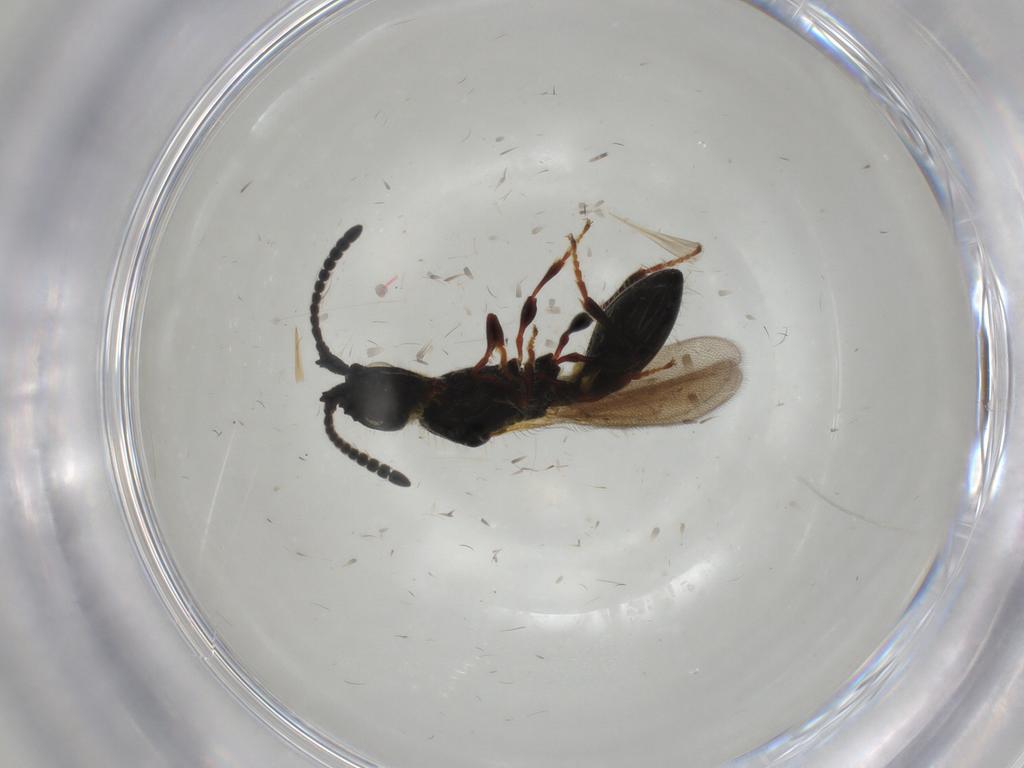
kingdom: Animalia
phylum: Arthropoda
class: Insecta
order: Hymenoptera
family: Diapriidae
